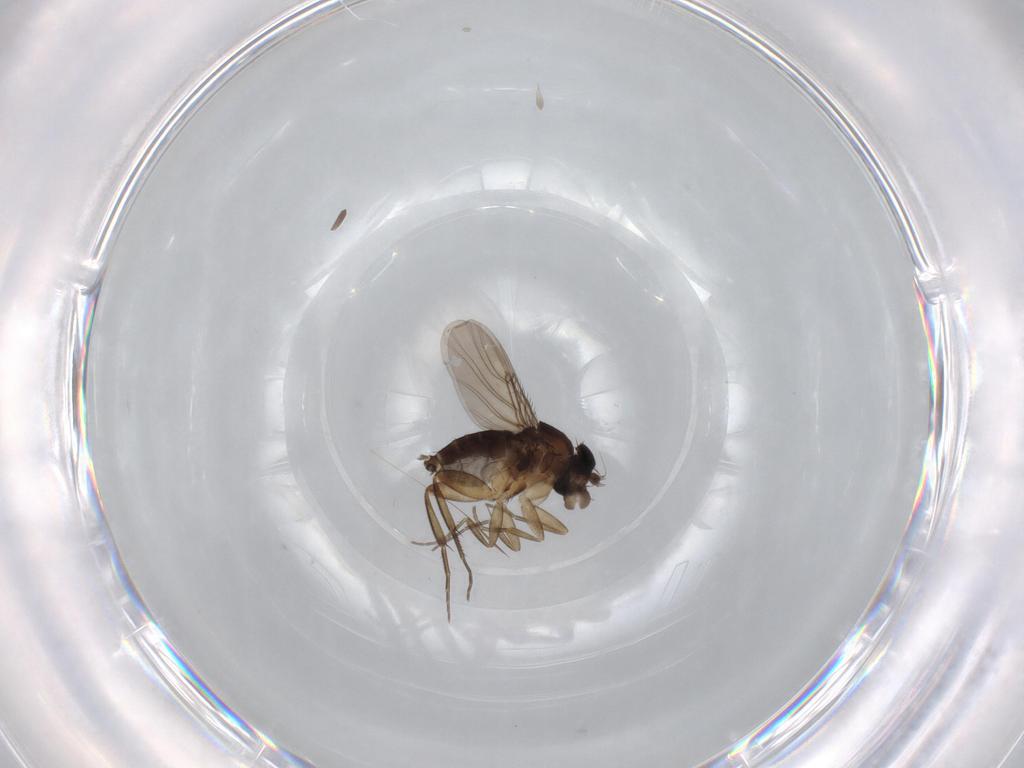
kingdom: Animalia
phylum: Arthropoda
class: Insecta
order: Diptera
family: Phoridae
